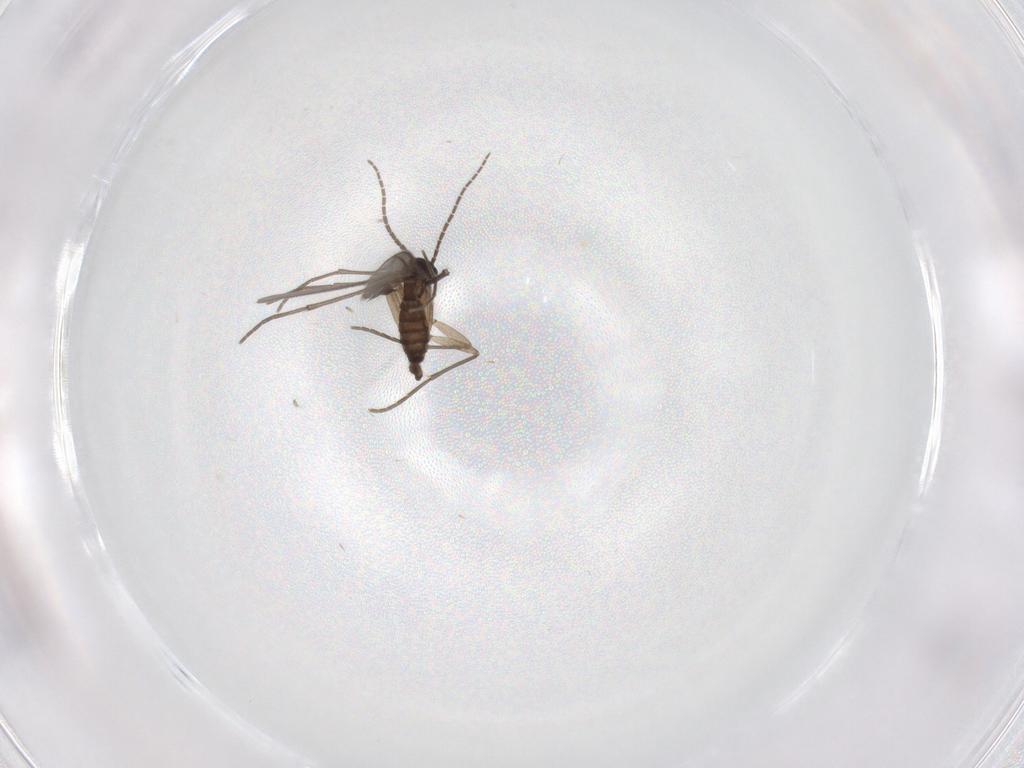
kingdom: Animalia
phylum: Arthropoda
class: Insecta
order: Diptera
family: Sciaridae
